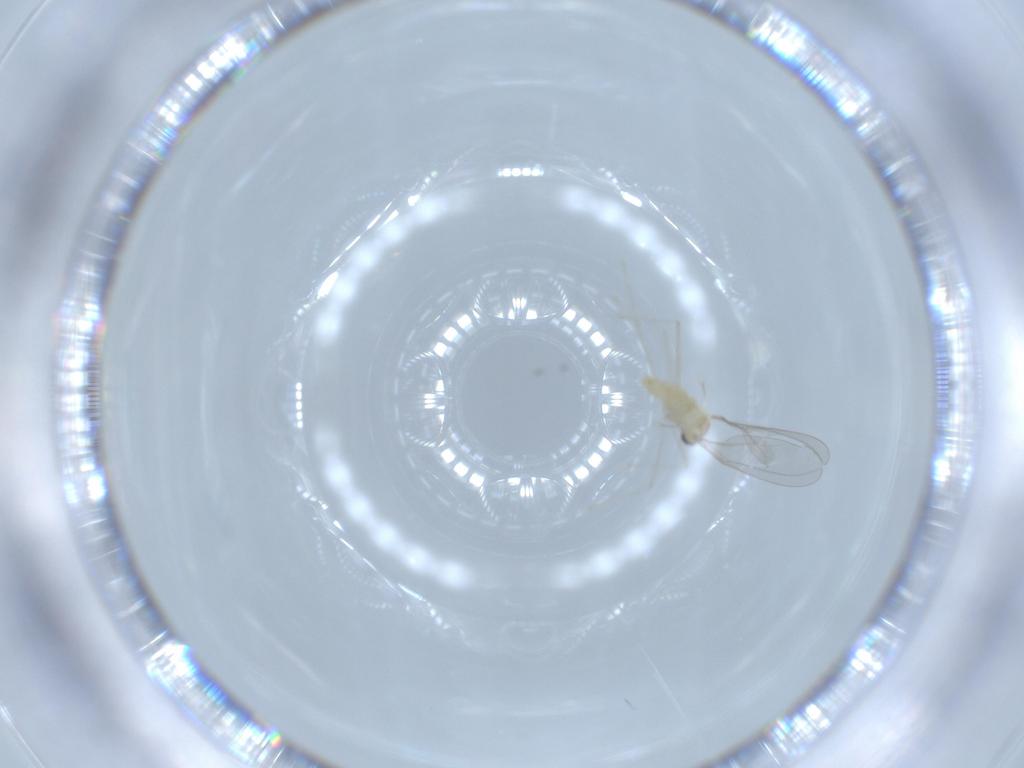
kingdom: Animalia
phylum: Arthropoda
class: Insecta
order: Diptera
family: Cecidomyiidae
